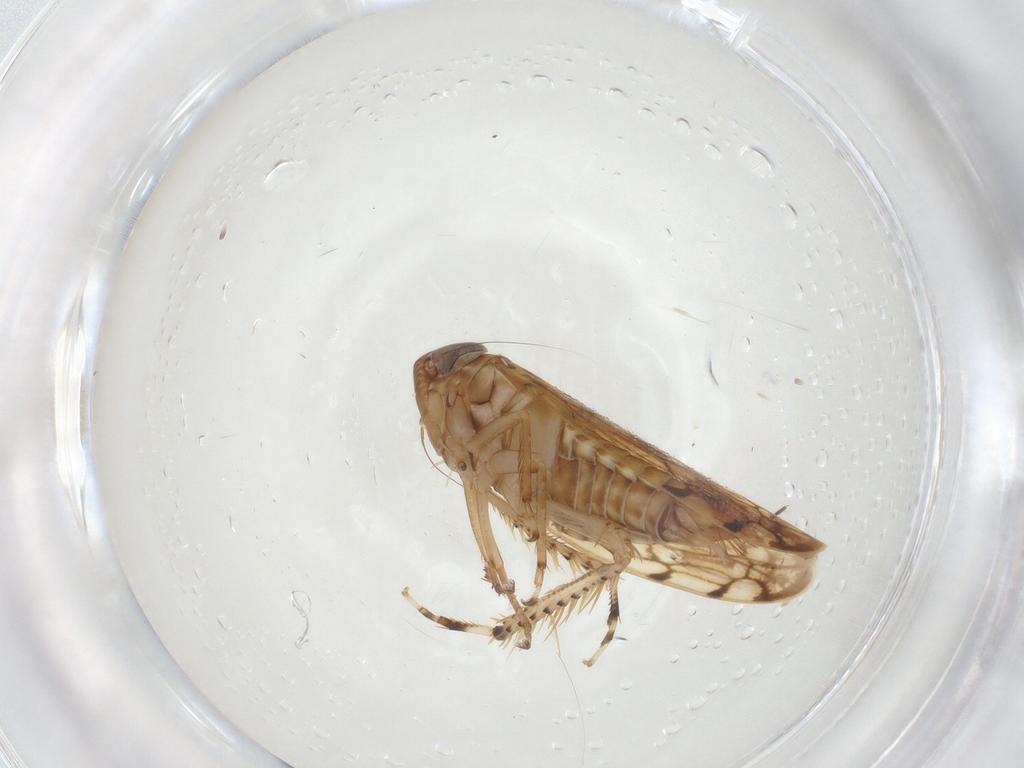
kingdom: Animalia
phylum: Arthropoda
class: Insecta
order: Hemiptera
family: Cicadellidae
